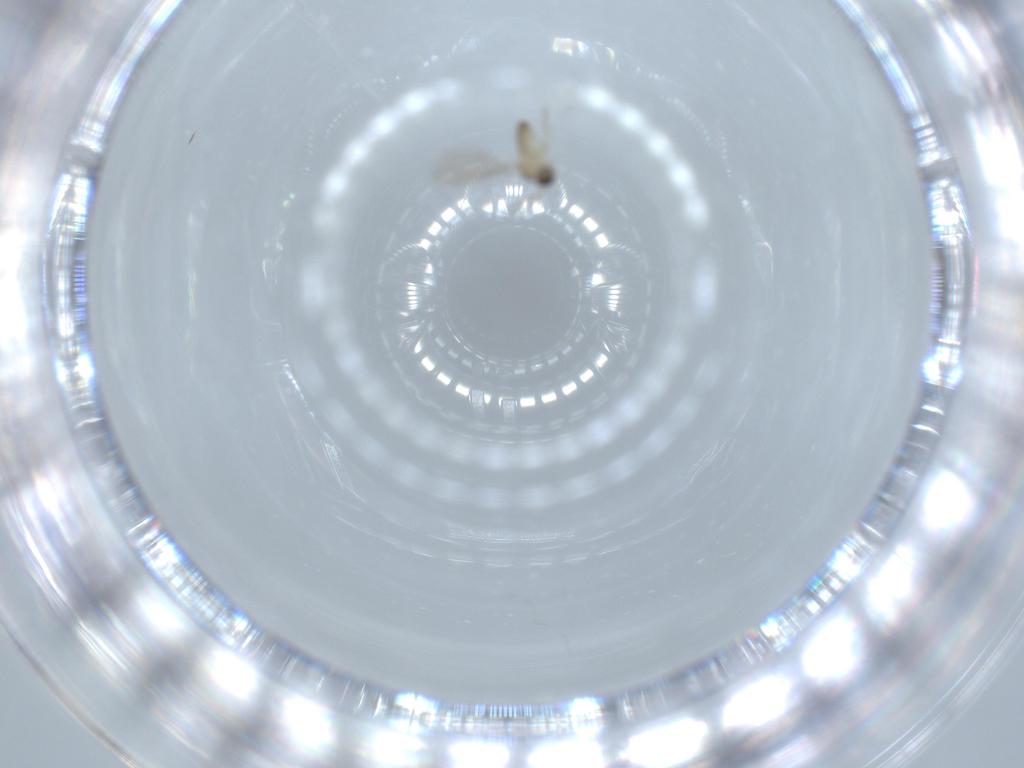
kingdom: Animalia
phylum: Arthropoda
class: Insecta
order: Diptera
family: Cecidomyiidae
